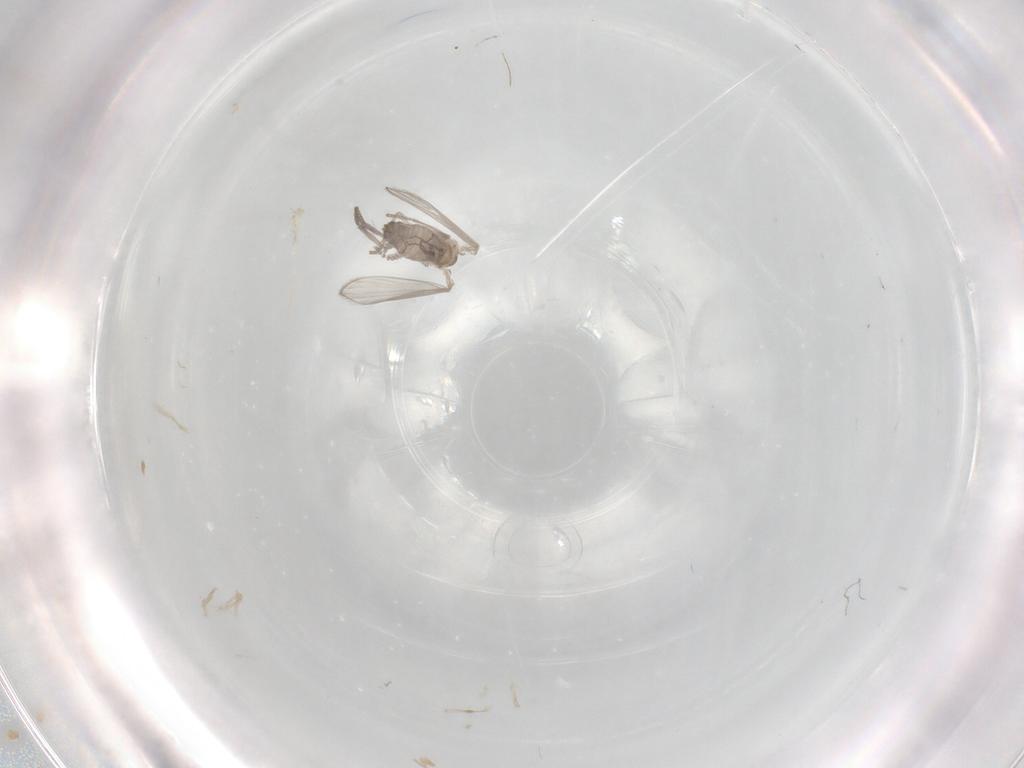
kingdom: Animalia
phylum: Arthropoda
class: Insecta
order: Diptera
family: Psychodidae
